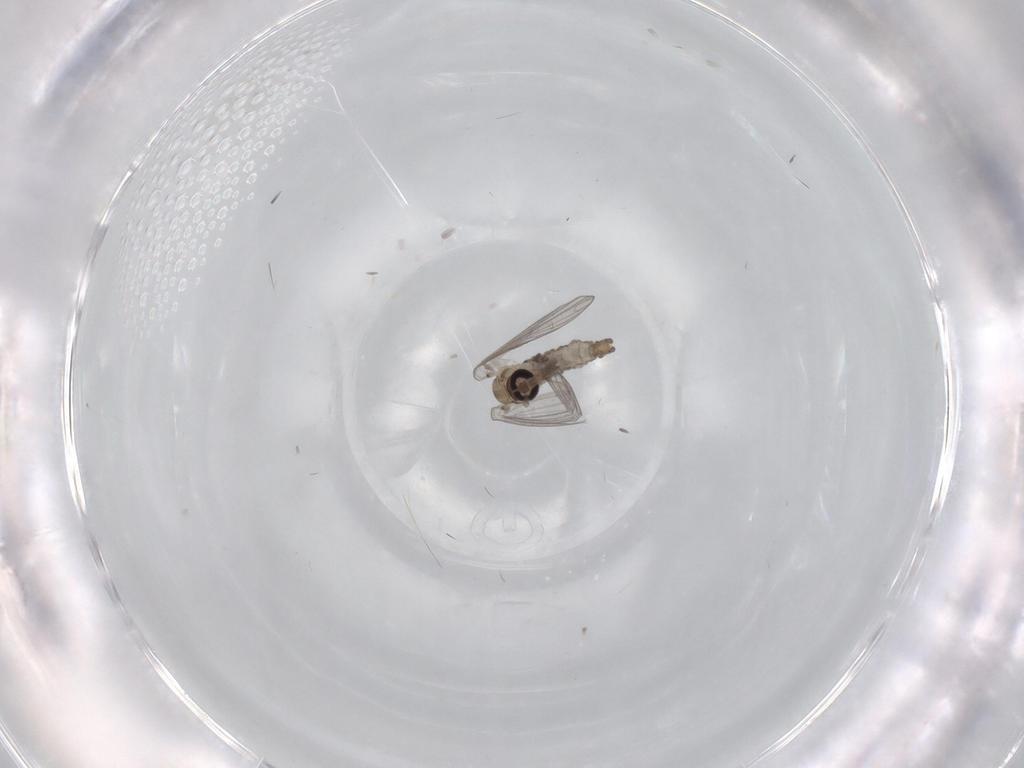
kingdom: Animalia
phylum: Arthropoda
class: Insecta
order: Diptera
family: Psychodidae
